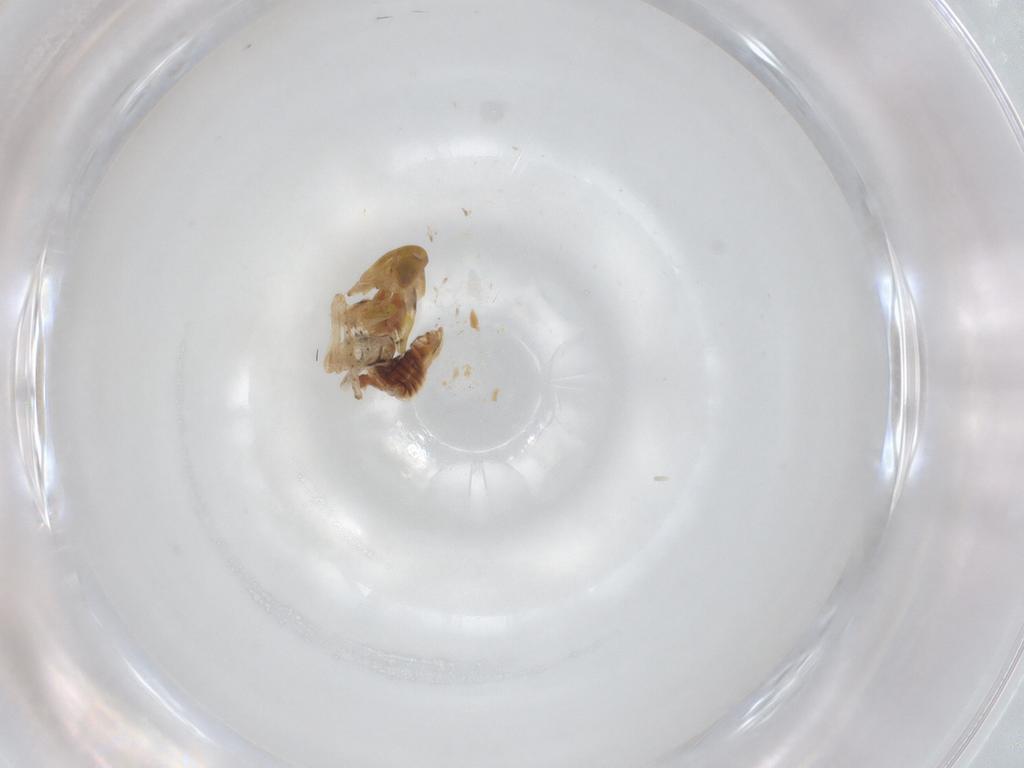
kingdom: Animalia
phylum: Arthropoda
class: Insecta
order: Hemiptera
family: Cicadellidae
